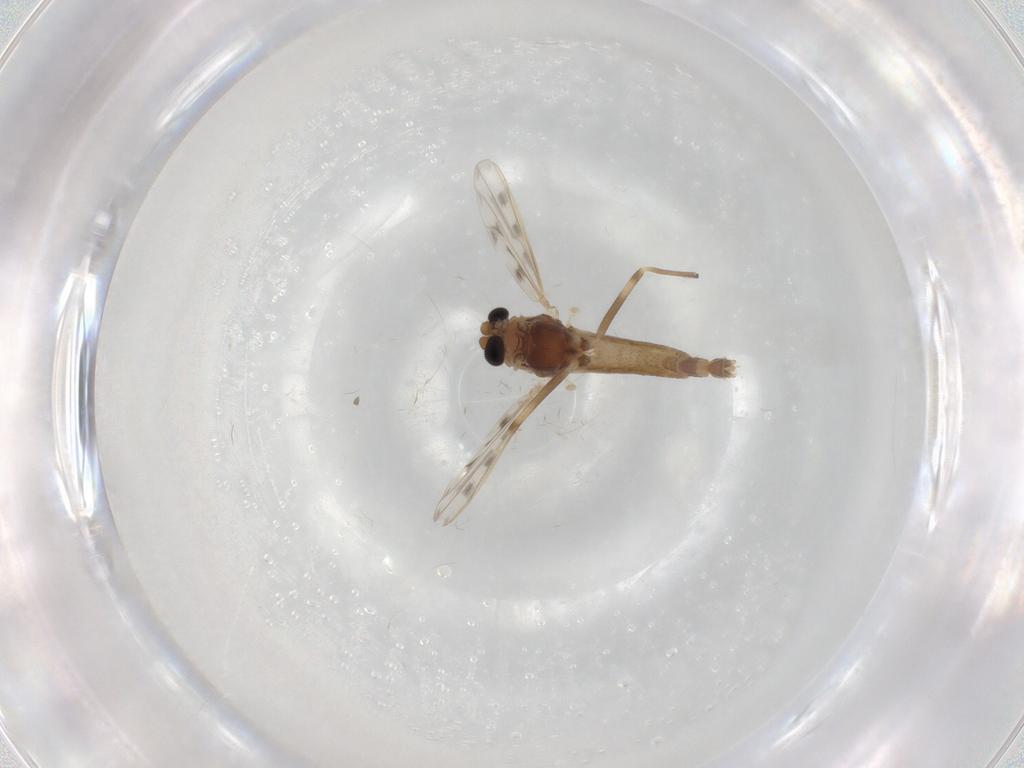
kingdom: Animalia
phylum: Arthropoda
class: Insecta
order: Diptera
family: Chironomidae
